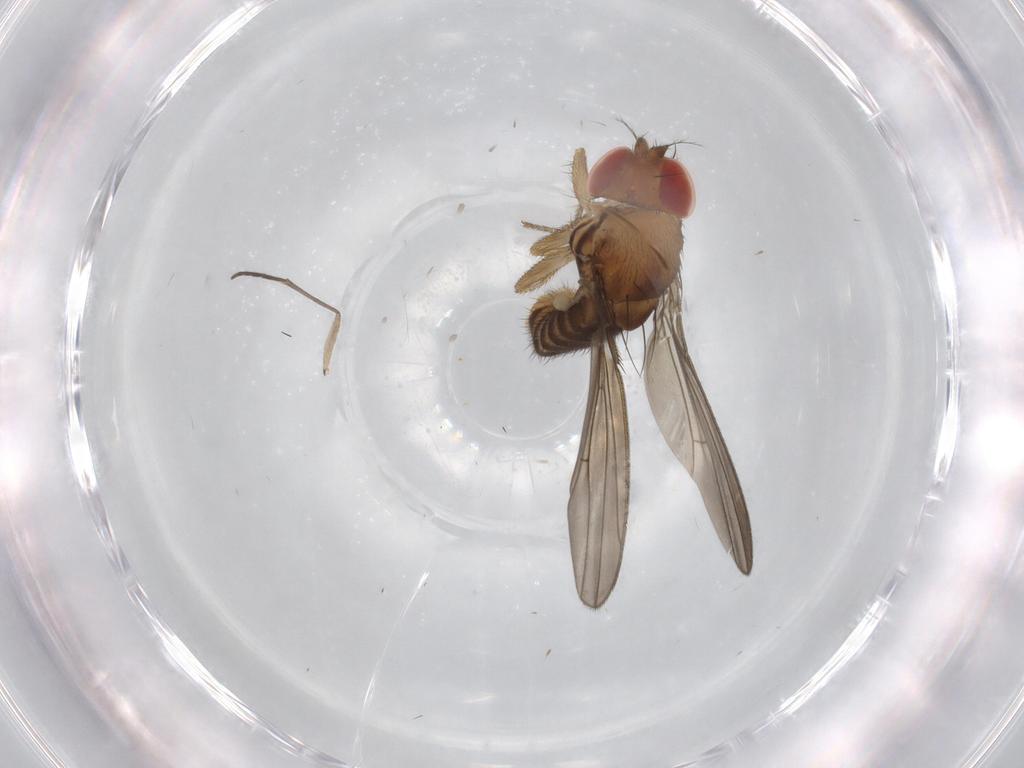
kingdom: Animalia
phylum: Arthropoda
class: Insecta
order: Diptera
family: Drosophilidae
